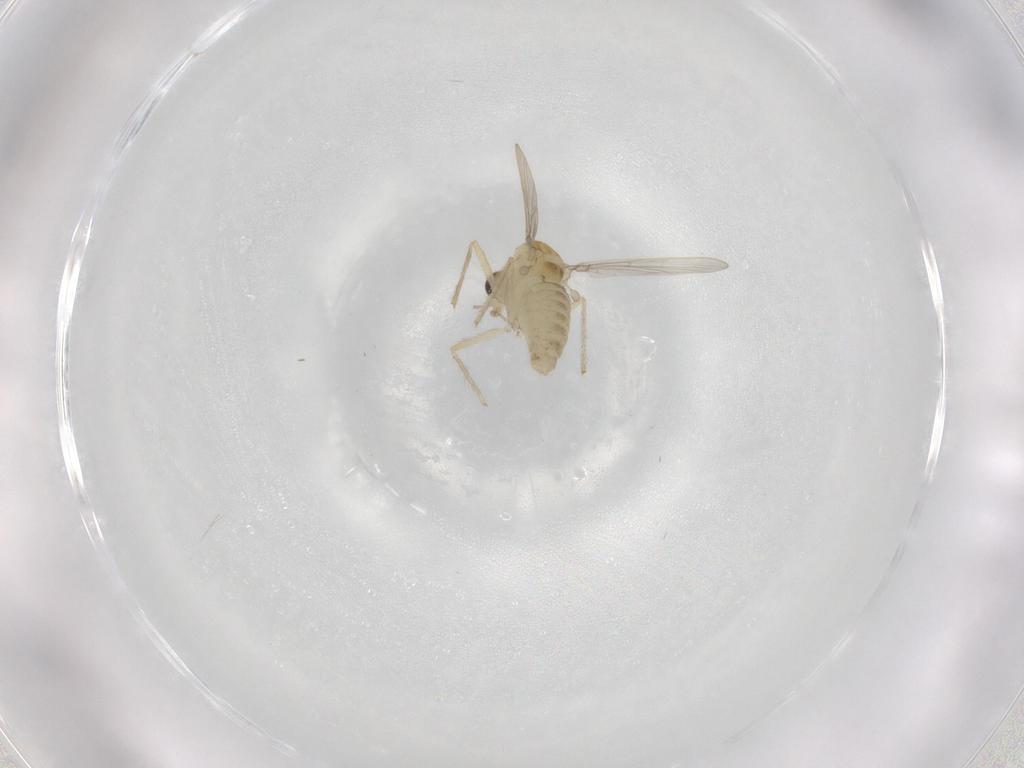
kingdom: Animalia
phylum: Arthropoda
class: Insecta
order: Diptera
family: Chironomidae
